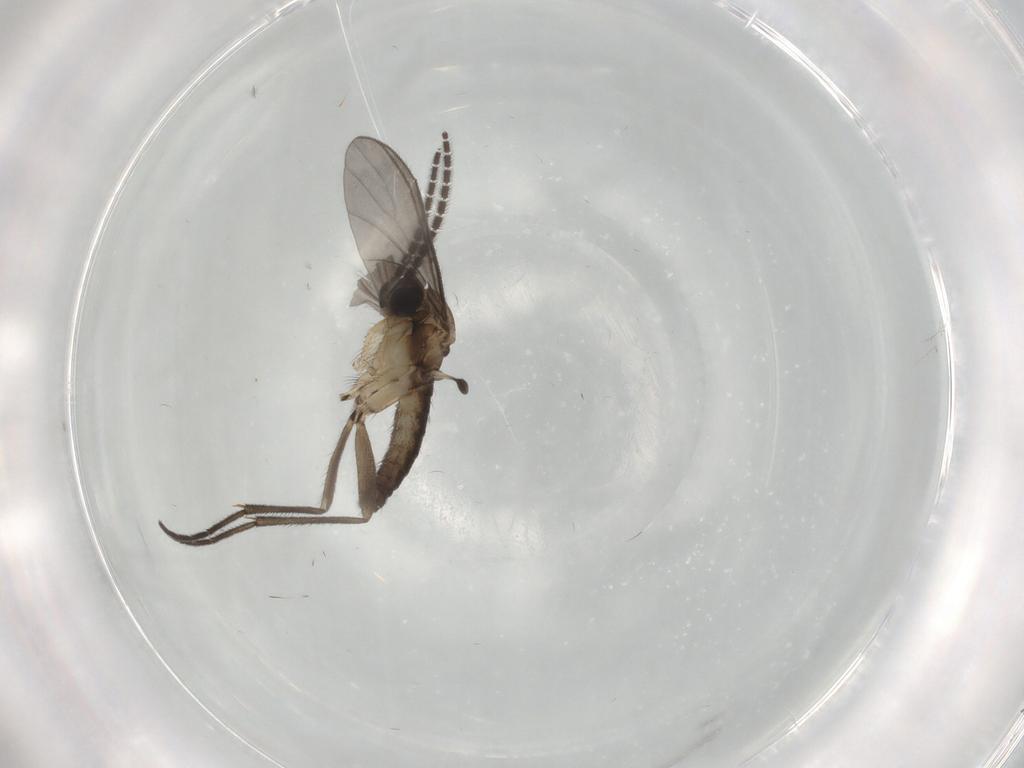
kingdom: Animalia
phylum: Arthropoda
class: Insecta
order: Diptera
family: Sciaridae
